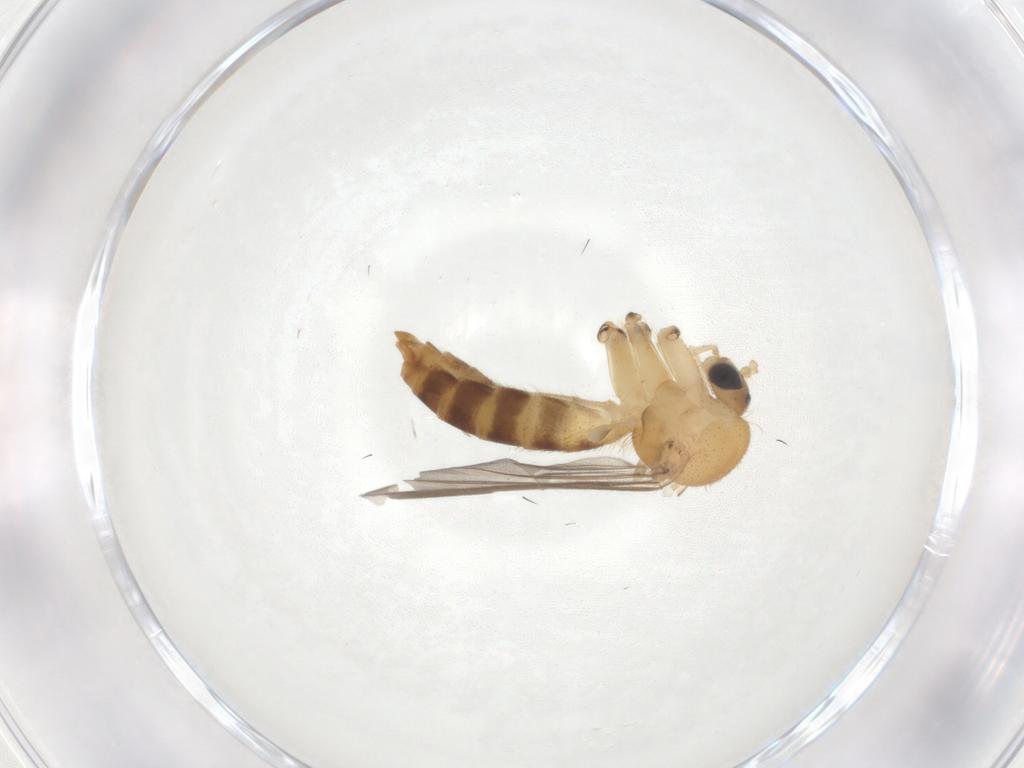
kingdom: Animalia
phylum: Arthropoda
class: Insecta
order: Diptera
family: Mycetophilidae
